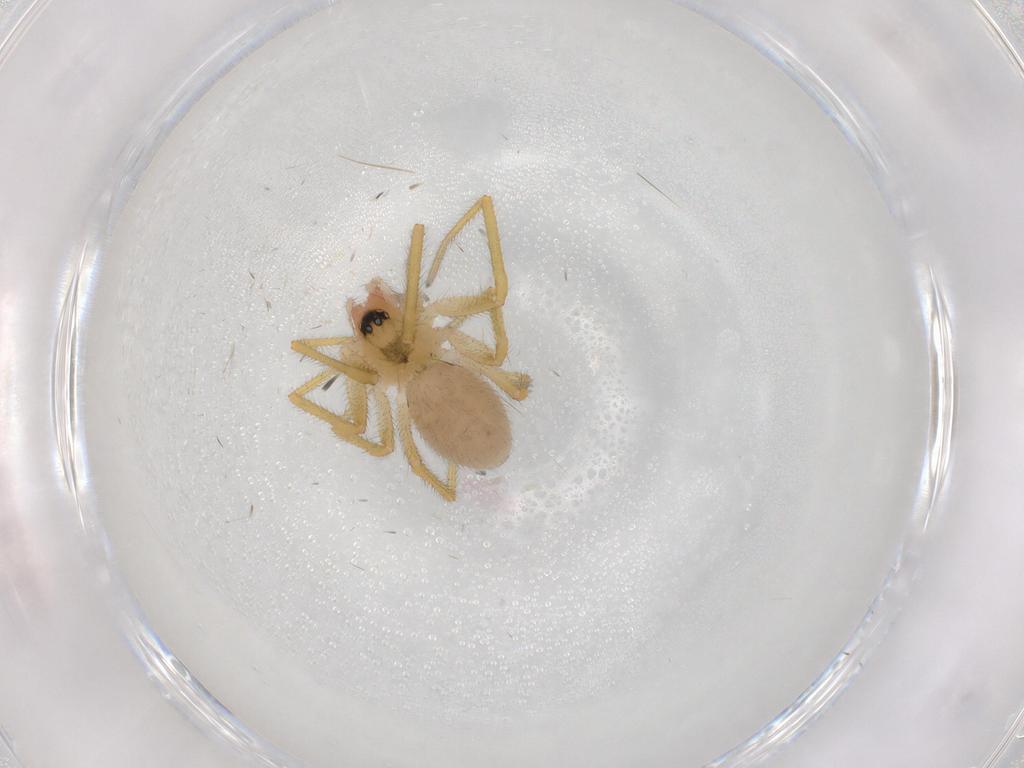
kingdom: Animalia
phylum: Arthropoda
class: Arachnida
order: Araneae
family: Linyphiidae
